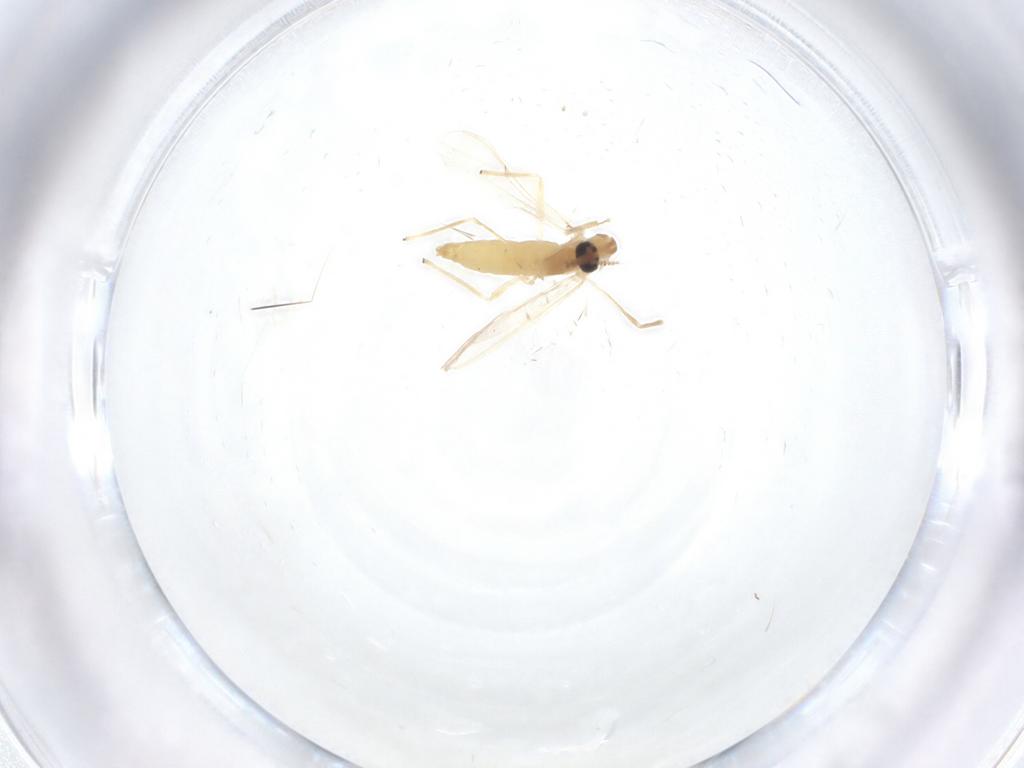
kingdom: Animalia
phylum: Arthropoda
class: Insecta
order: Diptera
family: Chironomidae
